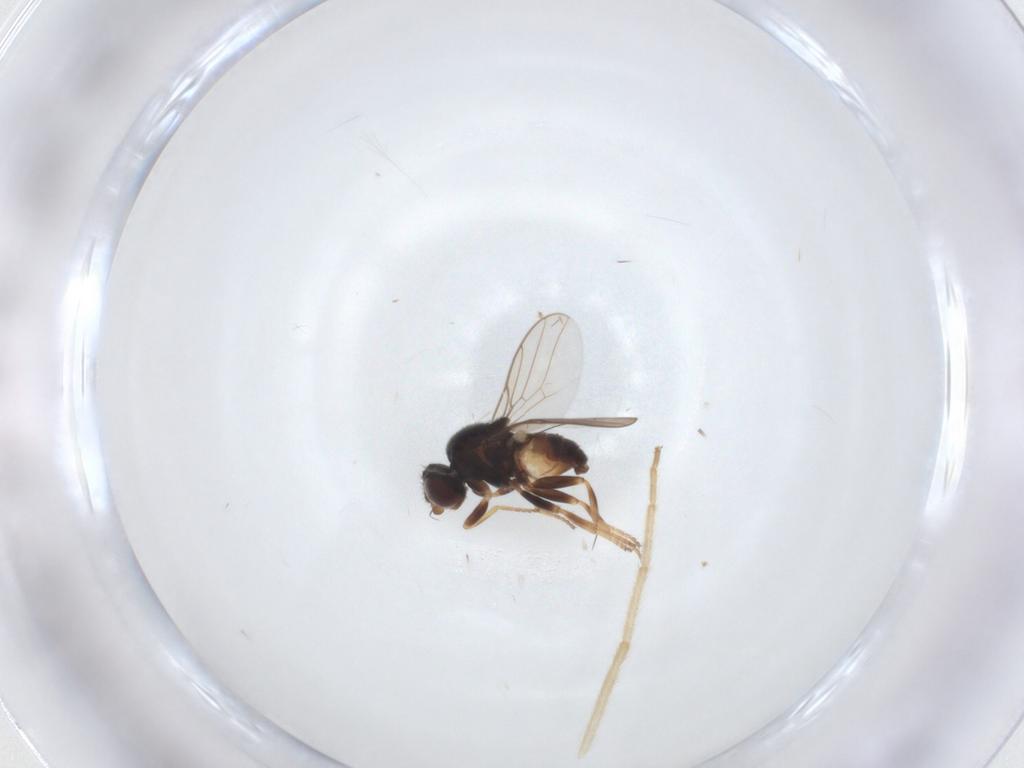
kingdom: Animalia
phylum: Arthropoda
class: Insecta
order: Diptera
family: Chloropidae
